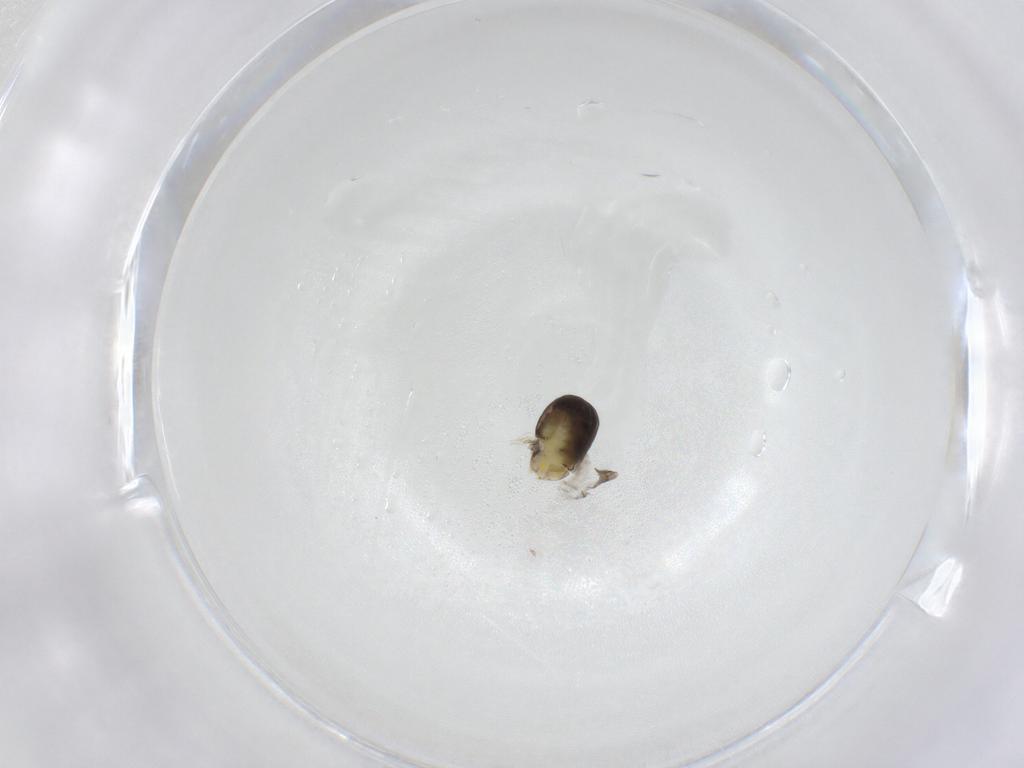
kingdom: Animalia
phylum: Arthropoda
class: Insecta
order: Hymenoptera
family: Dryinidae
